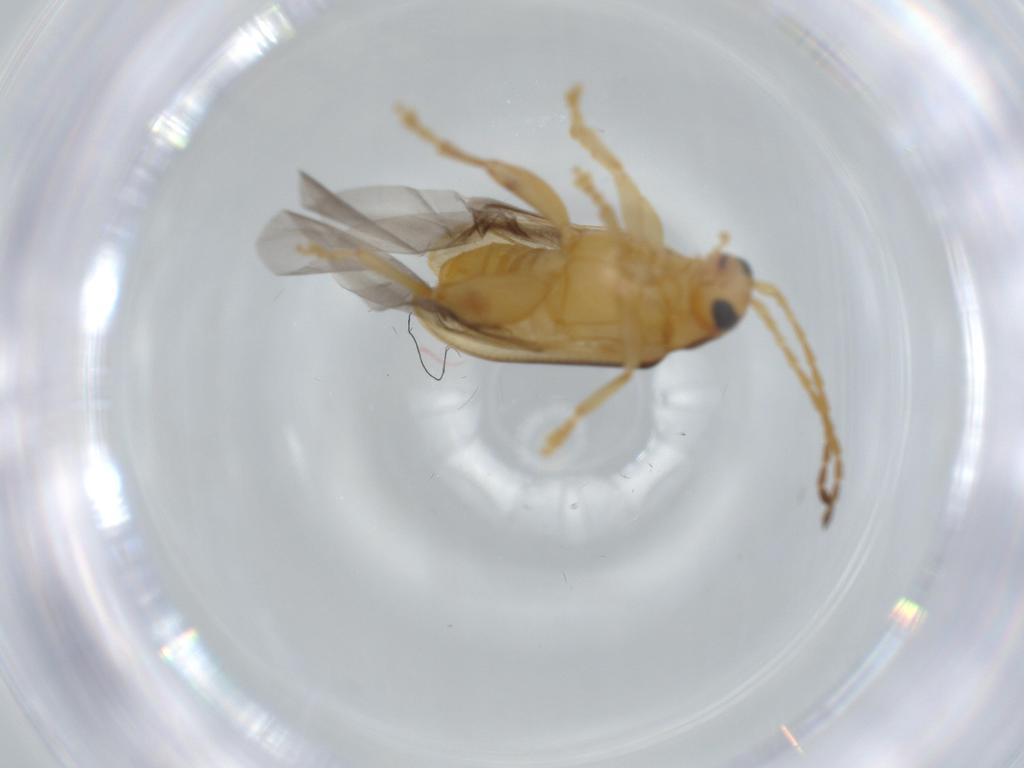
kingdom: Animalia
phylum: Arthropoda
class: Insecta
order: Coleoptera
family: Chrysomelidae
